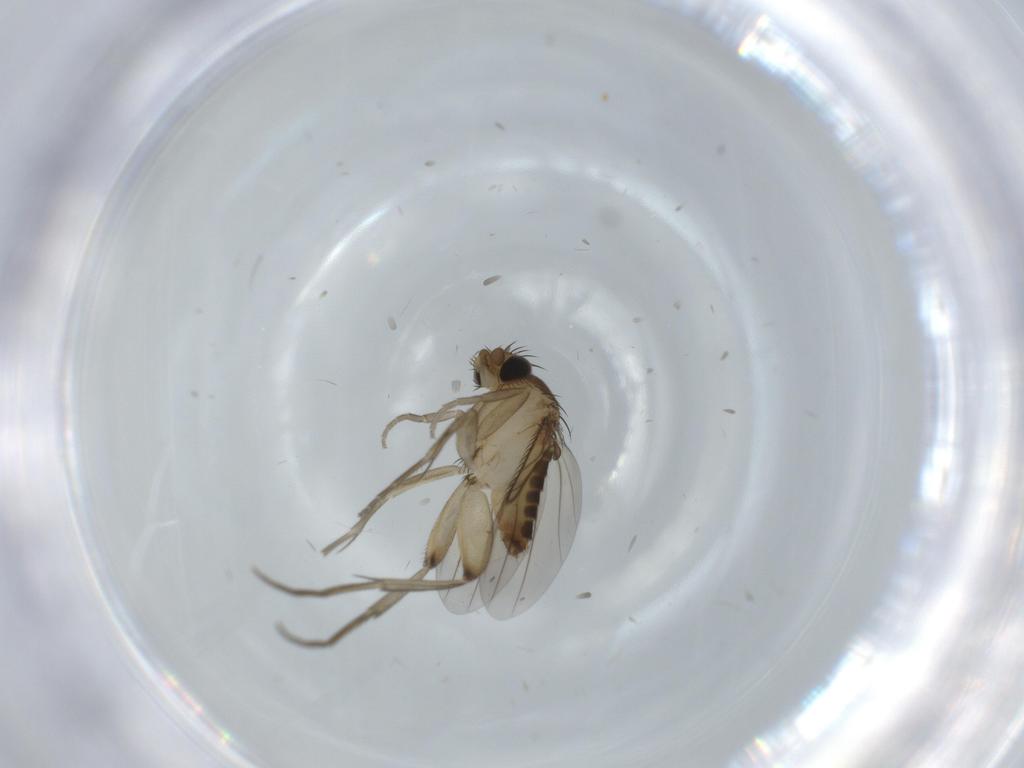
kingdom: Animalia
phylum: Arthropoda
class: Insecta
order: Diptera
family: Phoridae
